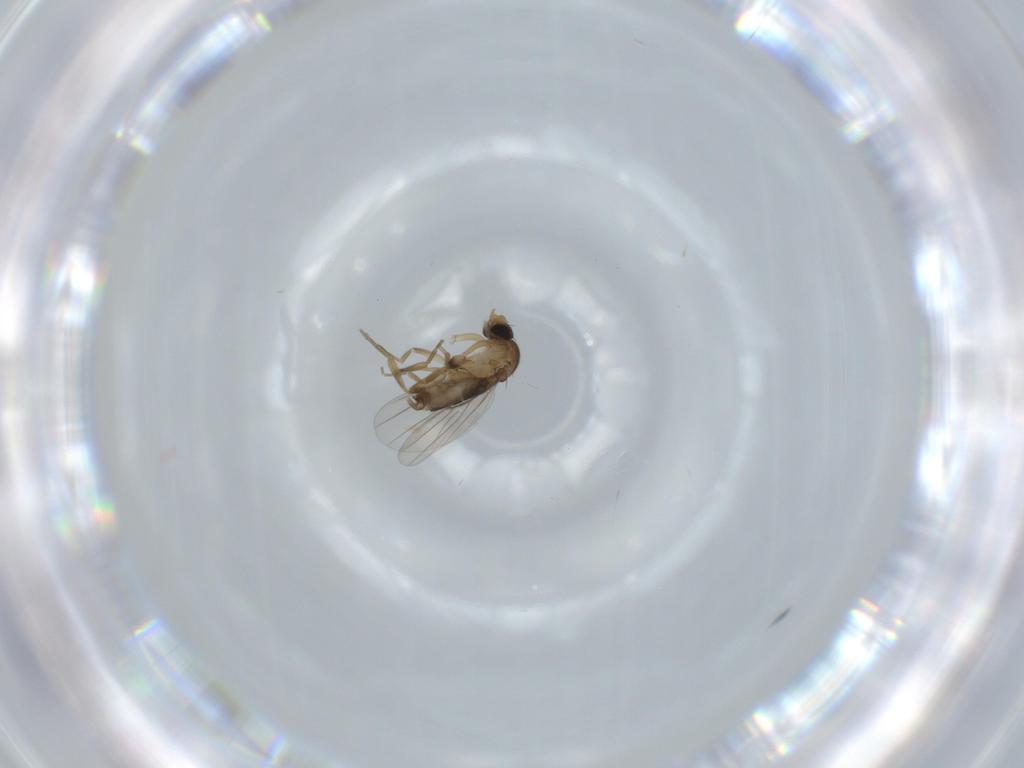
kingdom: Animalia
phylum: Arthropoda
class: Insecta
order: Diptera
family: Phoridae
